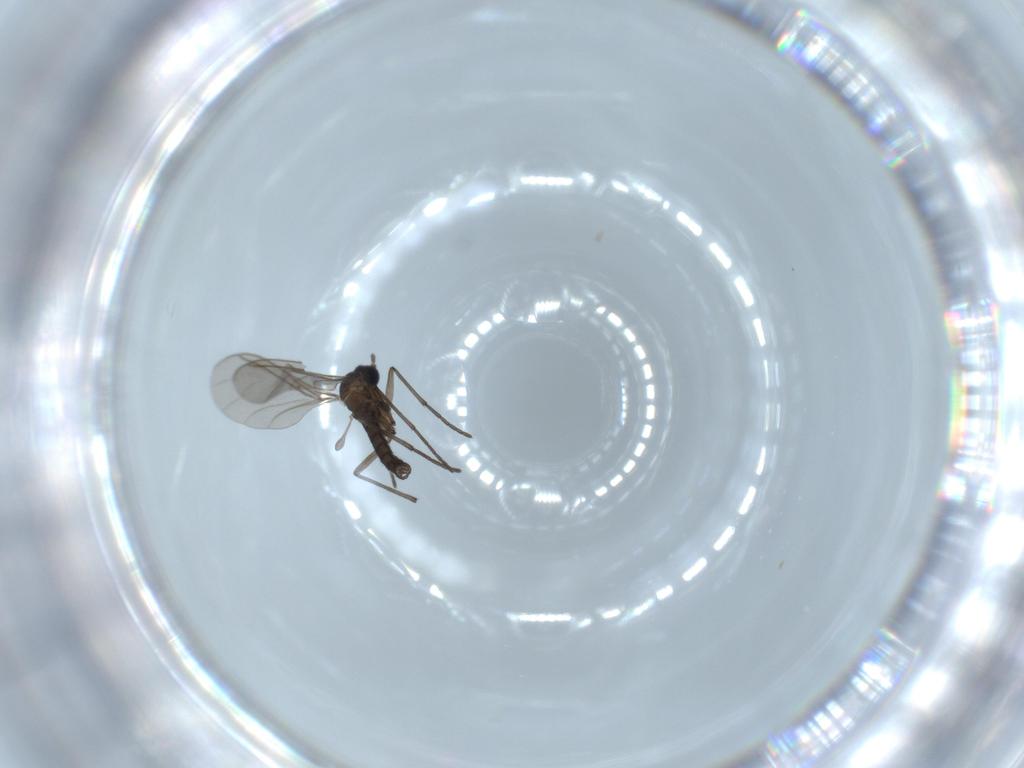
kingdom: Animalia
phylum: Arthropoda
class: Insecta
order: Diptera
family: Sciaridae
